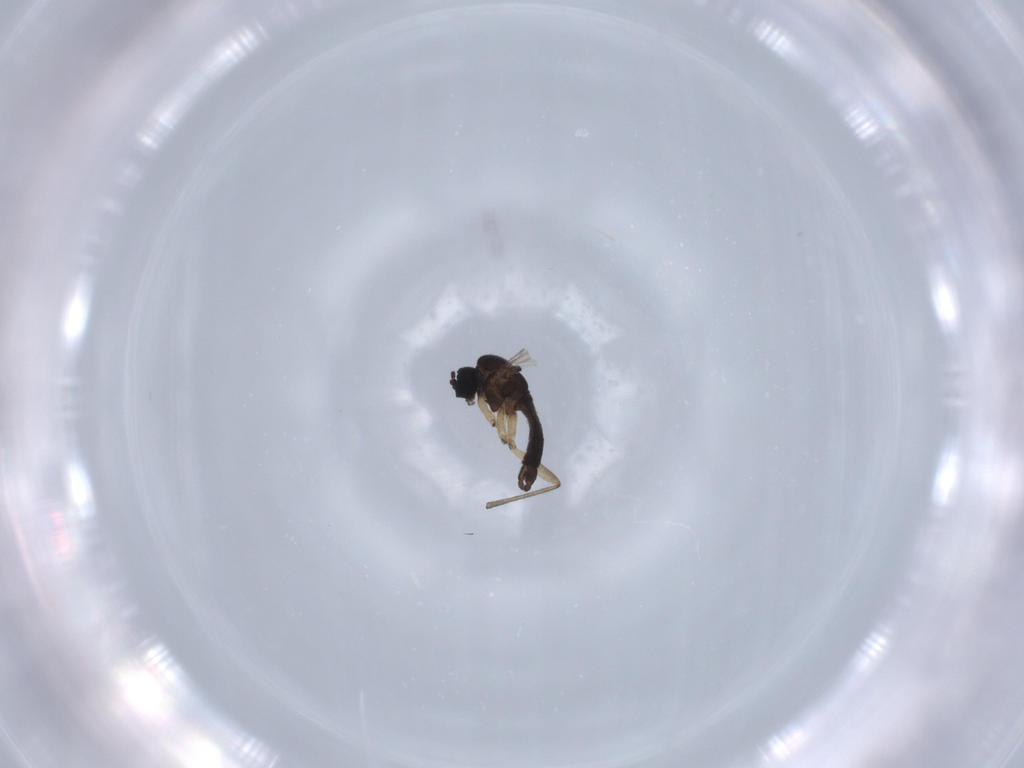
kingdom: Animalia
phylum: Arthropoda
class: Insecta
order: Diptera
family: Sciaridae
